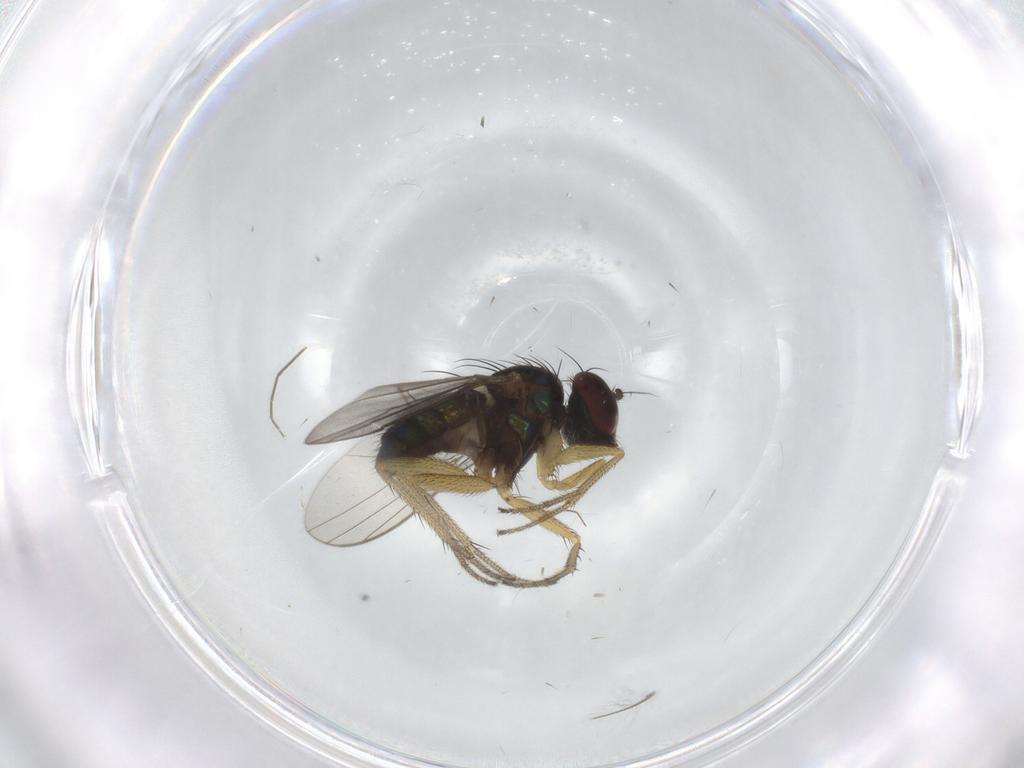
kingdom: Animalia
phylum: Arthropoda
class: Insecta
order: Diptera
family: Chironomidae
